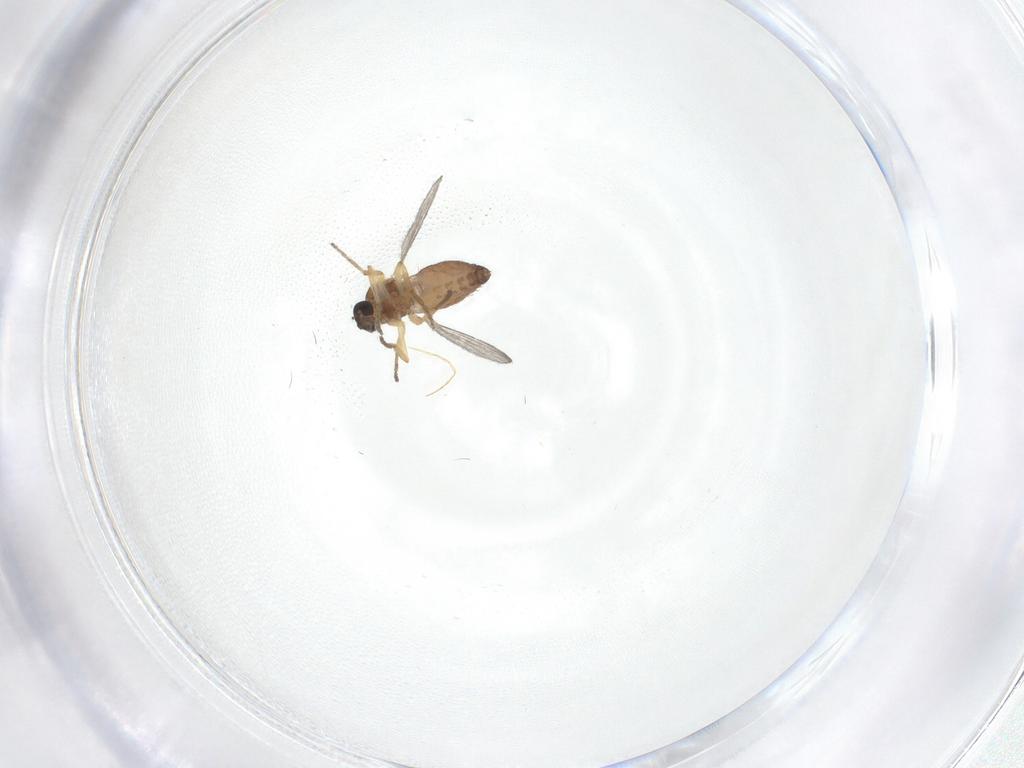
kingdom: Animalia
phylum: Arthropoda
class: Insecta
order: Diptera
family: Ceratopogonidae
